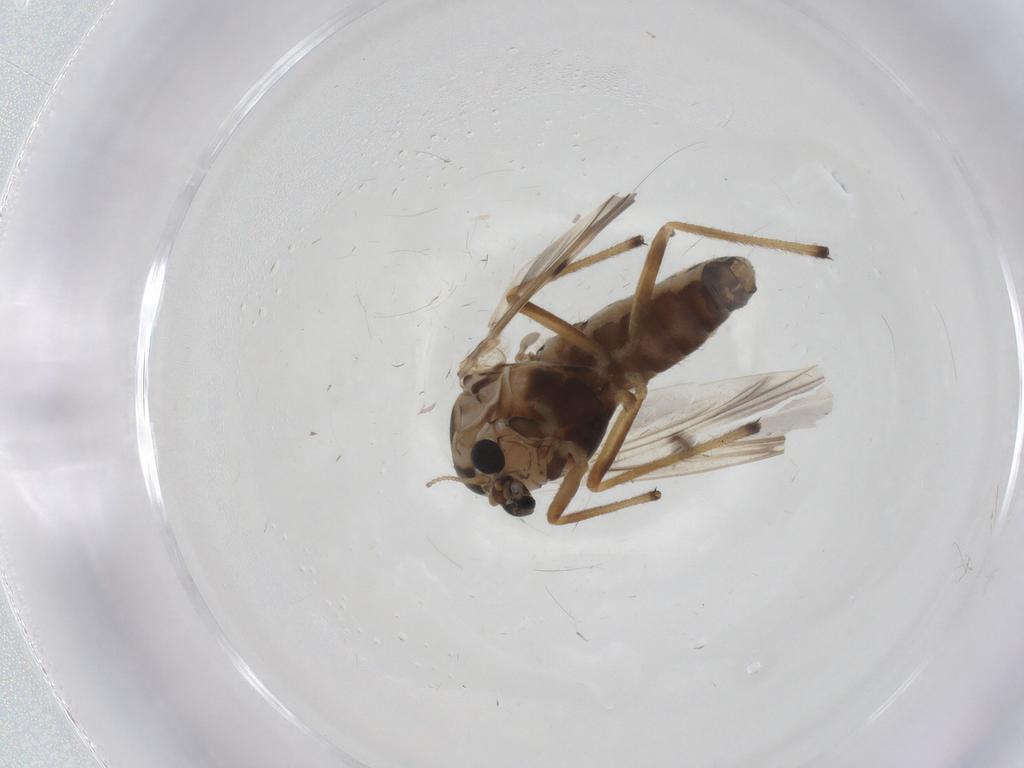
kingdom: Animalia
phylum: Arthropoda
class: Insecta
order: Diptera
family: Chironomidae
